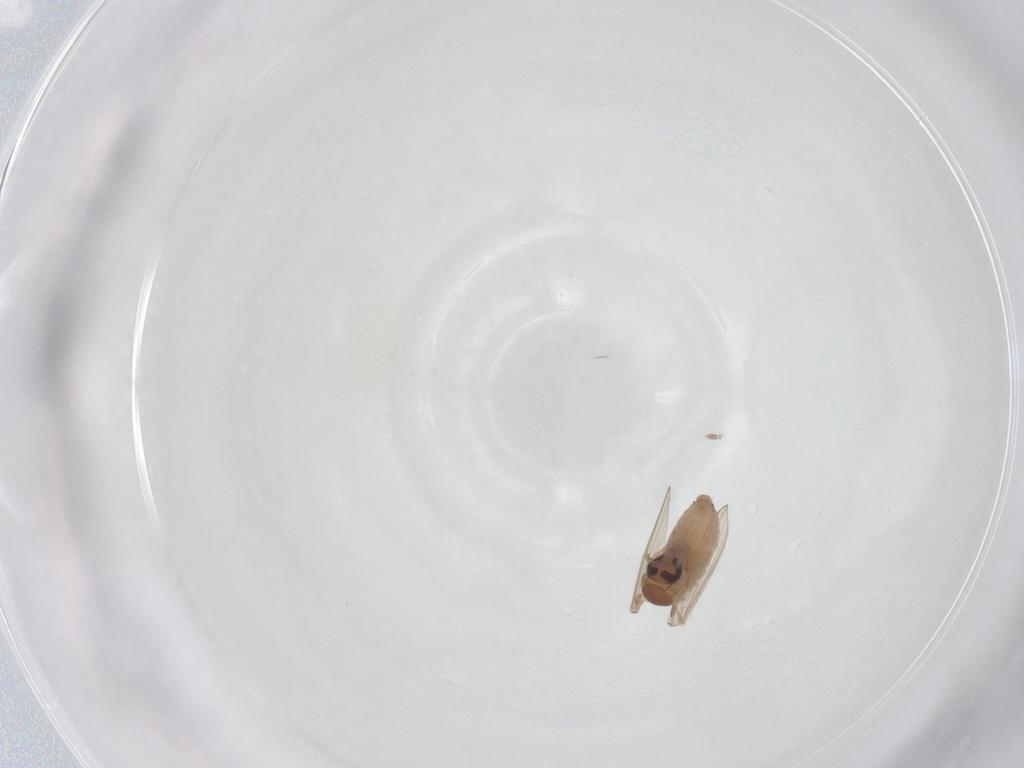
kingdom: Animalia
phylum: Arthropoda
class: Insecta
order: Diptera
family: Psychodidae
